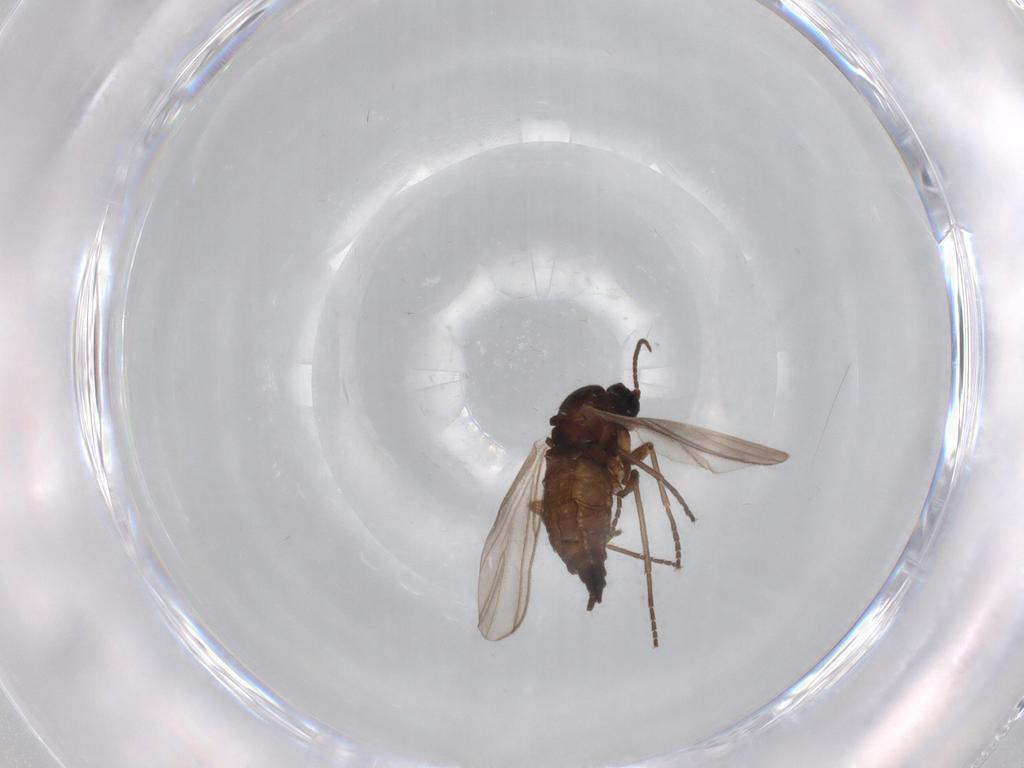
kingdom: Animalia
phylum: Arthropoda
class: Insecta
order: Diptera
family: Sciaridae
